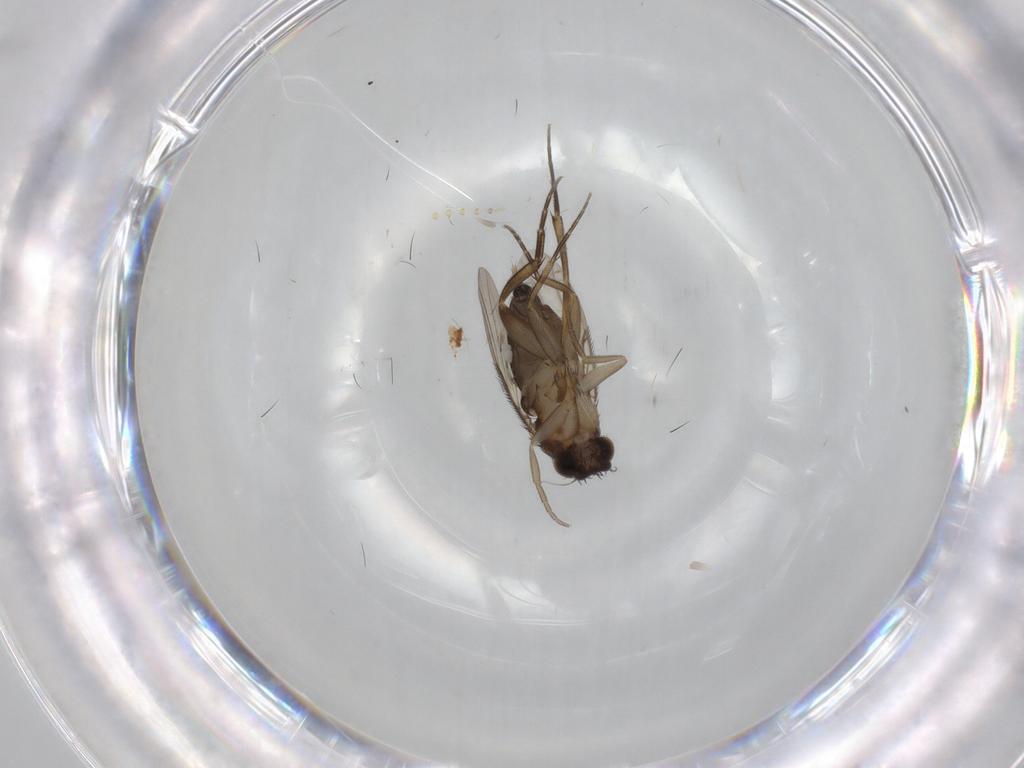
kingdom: Animalia
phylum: Arthropoda
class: Insecta
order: Diptera
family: Phoridae
